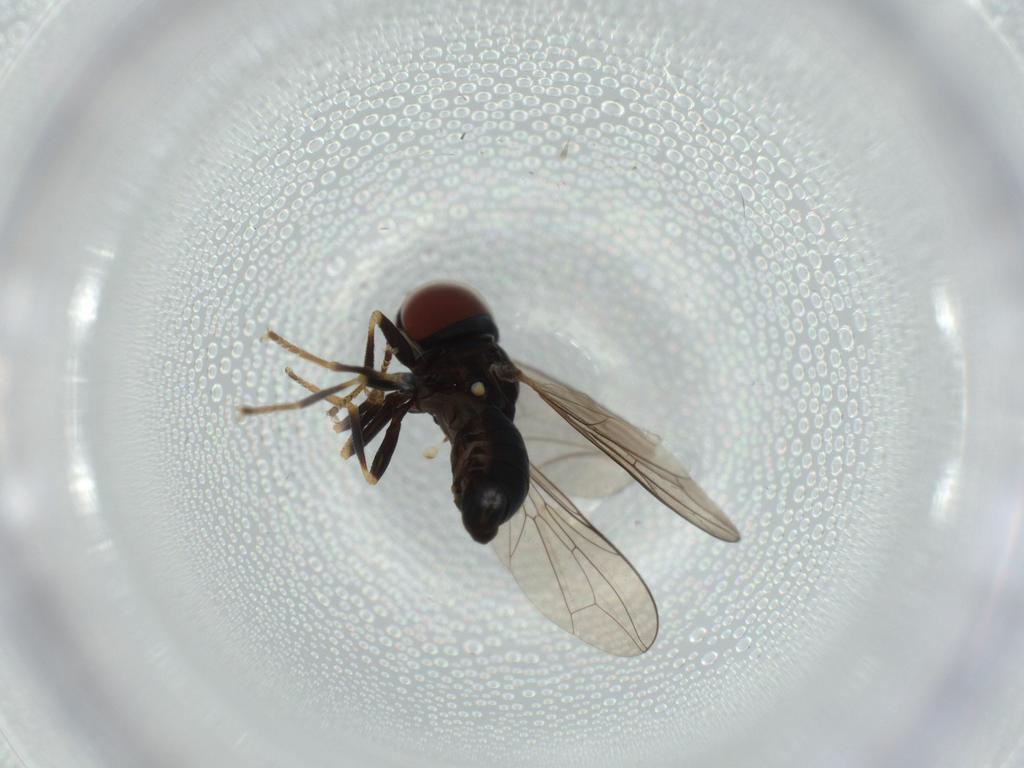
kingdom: Animalia
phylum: Arthropoda
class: Insecta
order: Diptera
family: Pipunculidae
